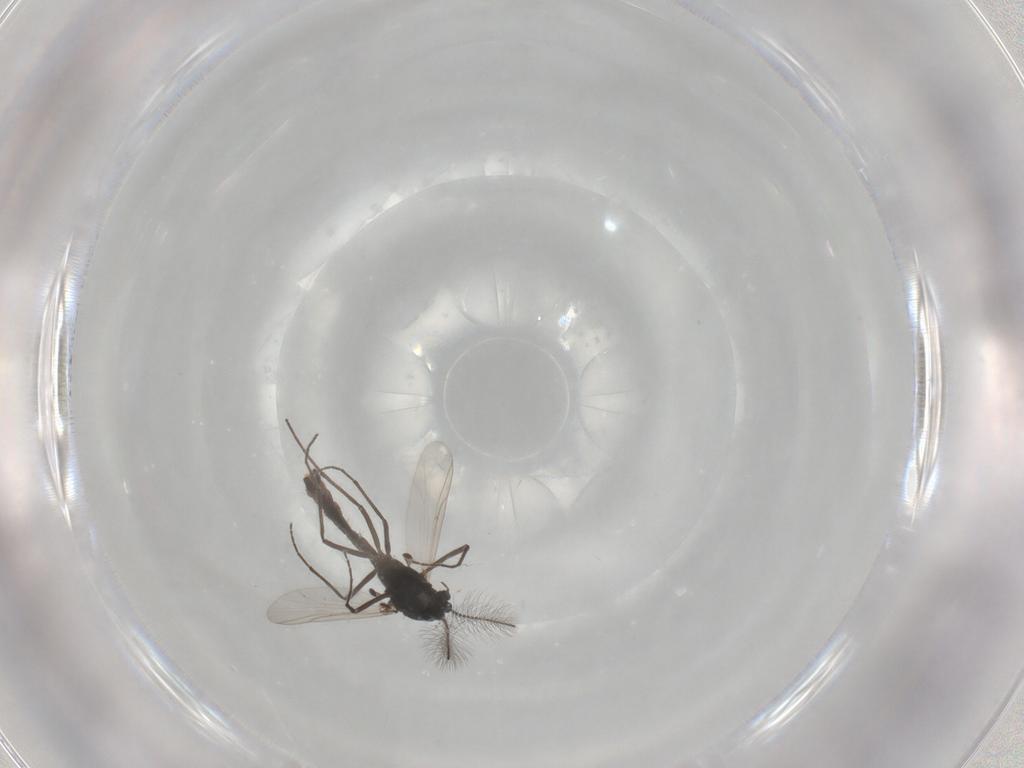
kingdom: Animalia
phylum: Arthropoda
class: Insecta
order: Diptera
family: Chironomidae
